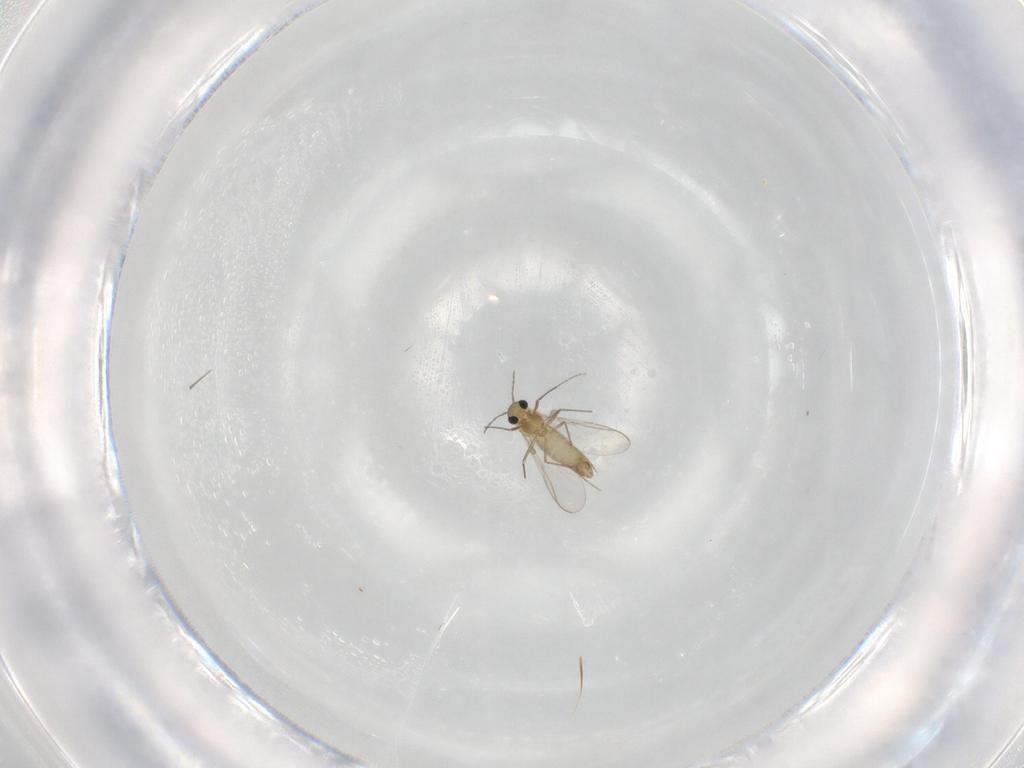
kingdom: Animalia
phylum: Arthropoda
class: Insecta
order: Diptera
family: Chironomidae
